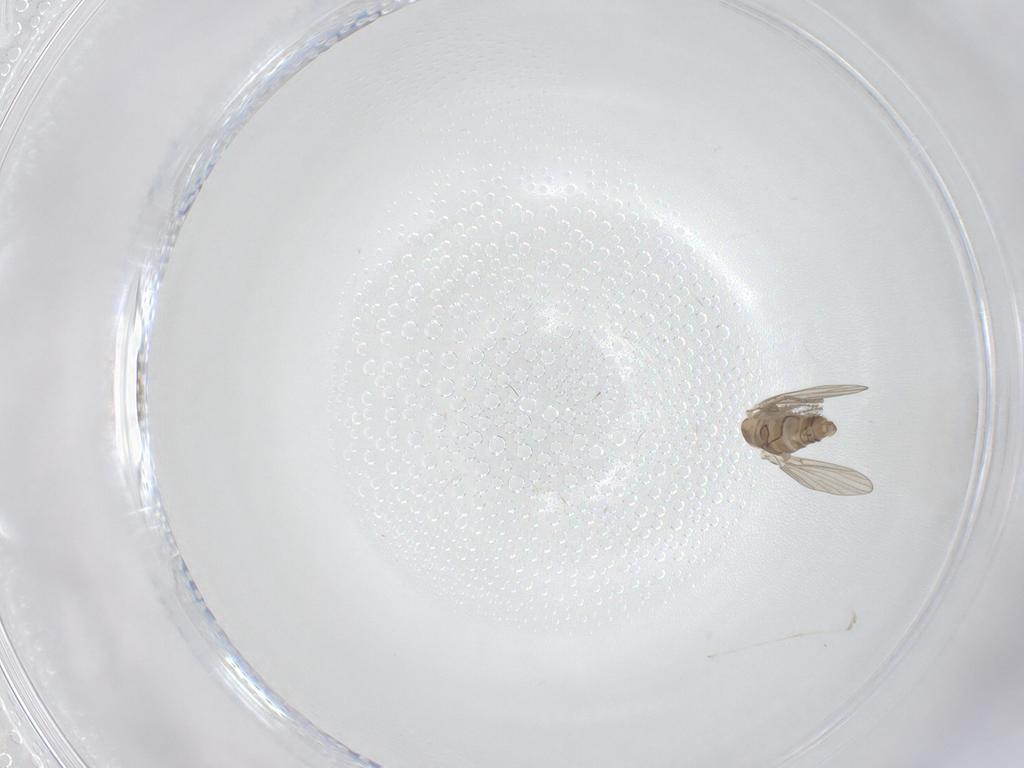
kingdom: Animalia
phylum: Arthropoda
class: Insecta
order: Diptera
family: Cecidomyiidae
